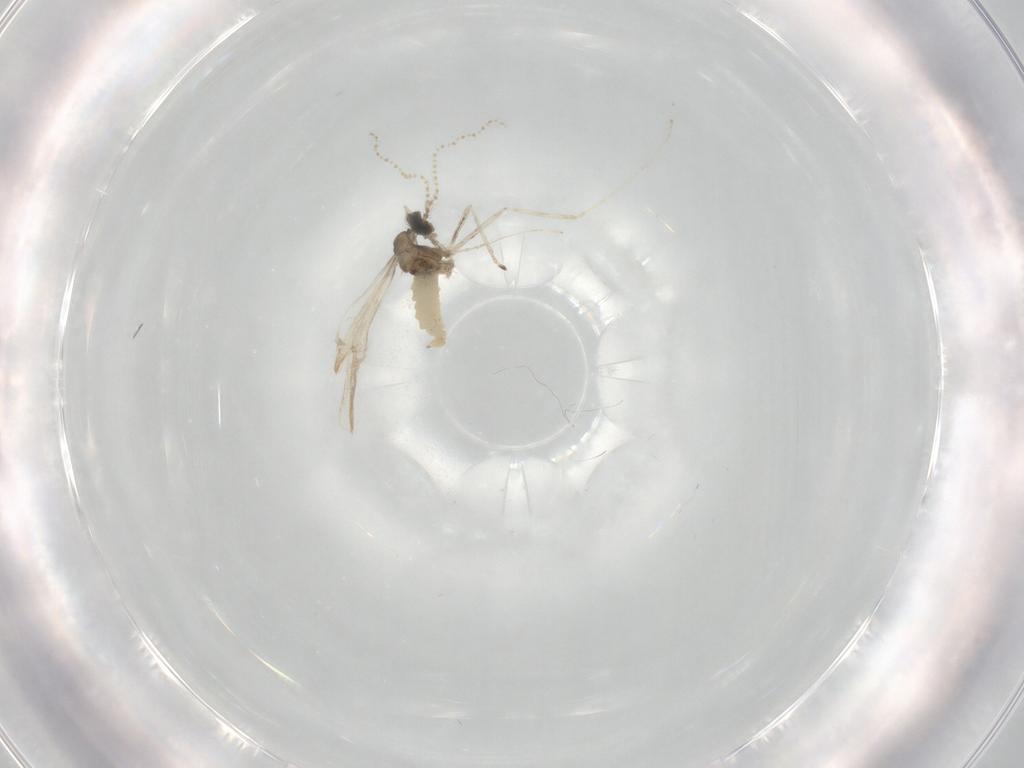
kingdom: Animalia
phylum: Arthropoda
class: Insecta
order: Diptera
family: Cecidomyiidae
